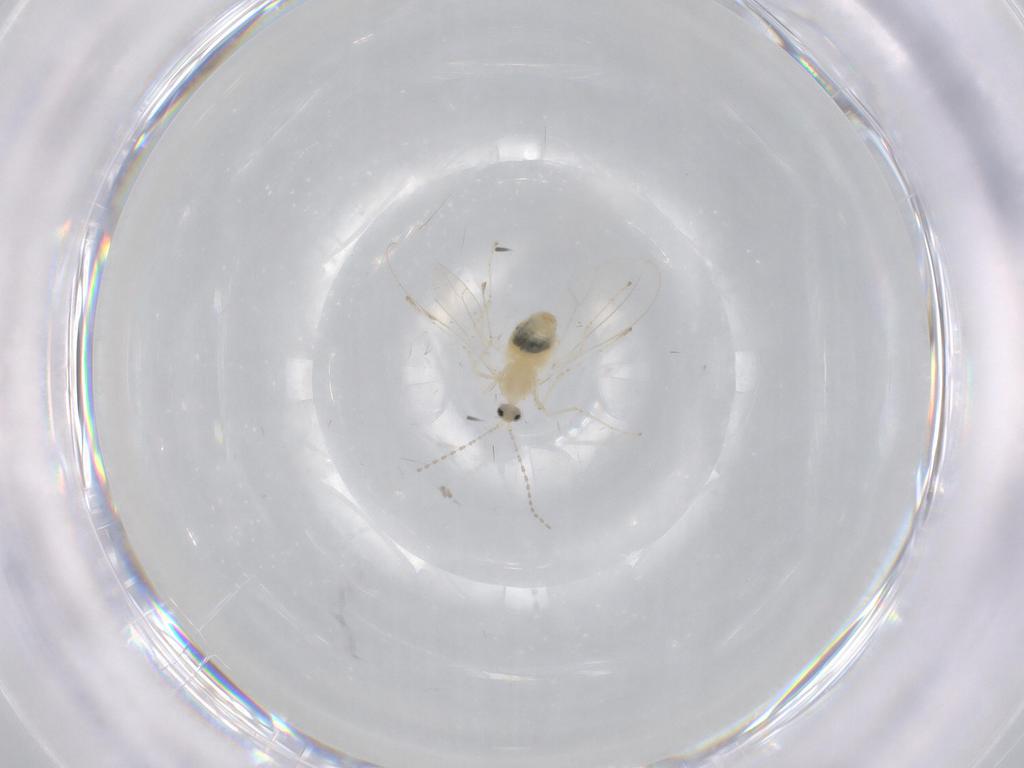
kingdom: Animalia
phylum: Arthropoda
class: Insecta
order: Diptera
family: Cecidomyiidae
